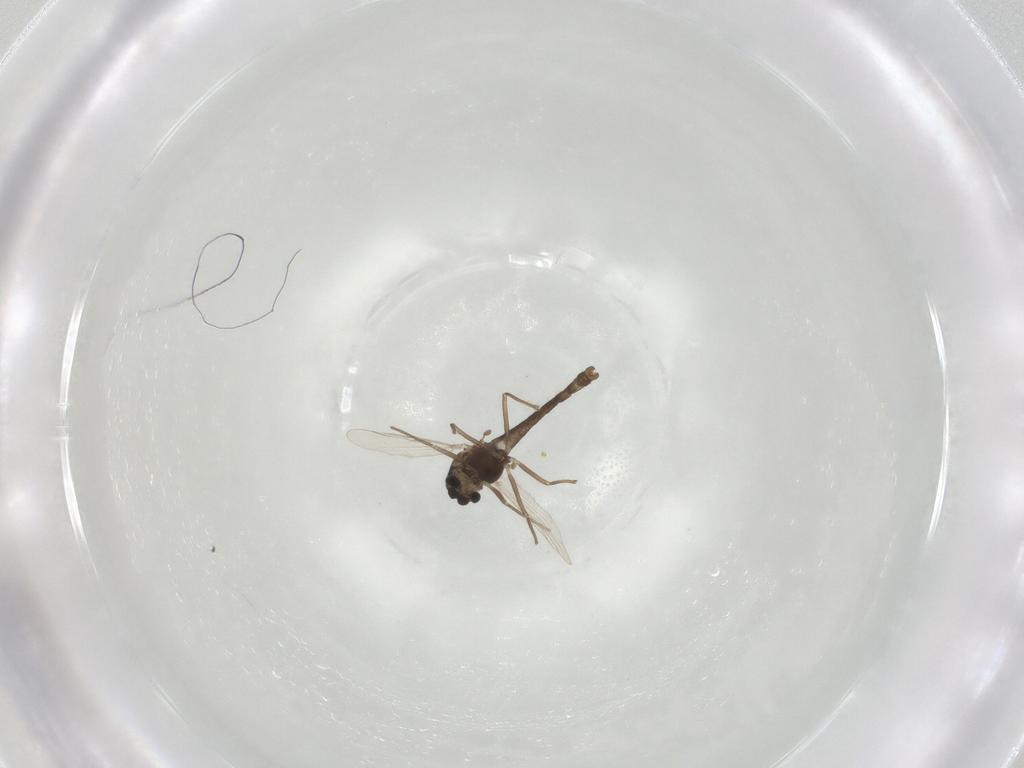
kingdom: Animalia
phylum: Arthropoda
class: Insecta
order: Diptera
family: Chironomidae
